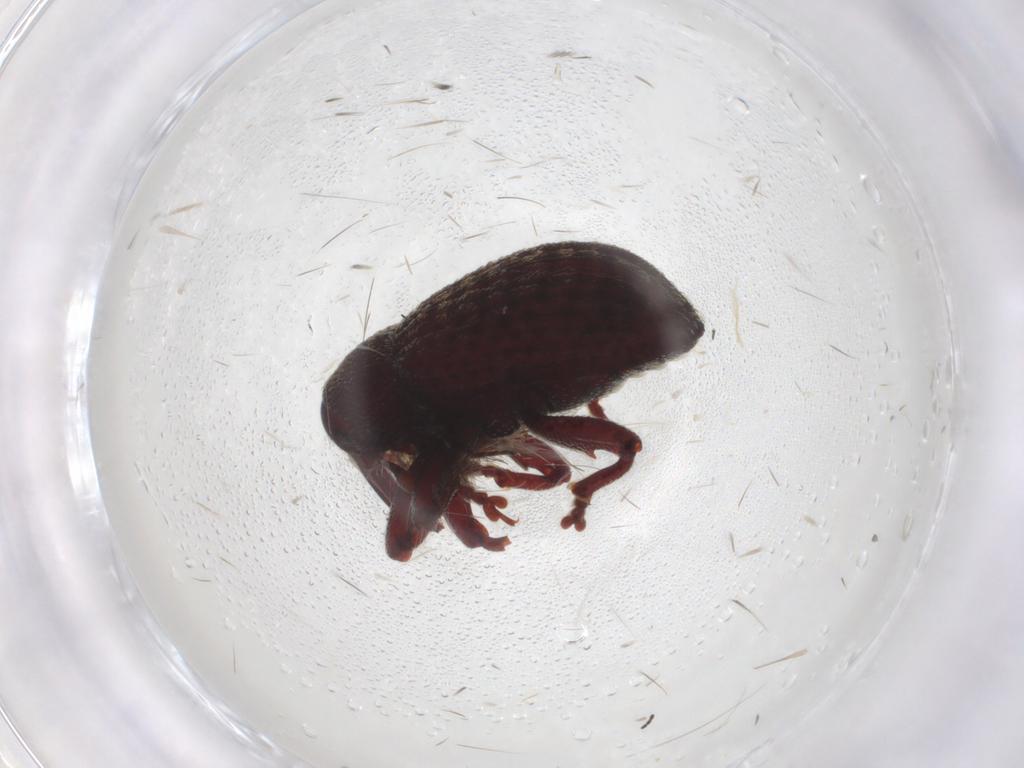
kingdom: Animalia
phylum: Arthropoda
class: Insecta
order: Coleoptera
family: Curculionidae
